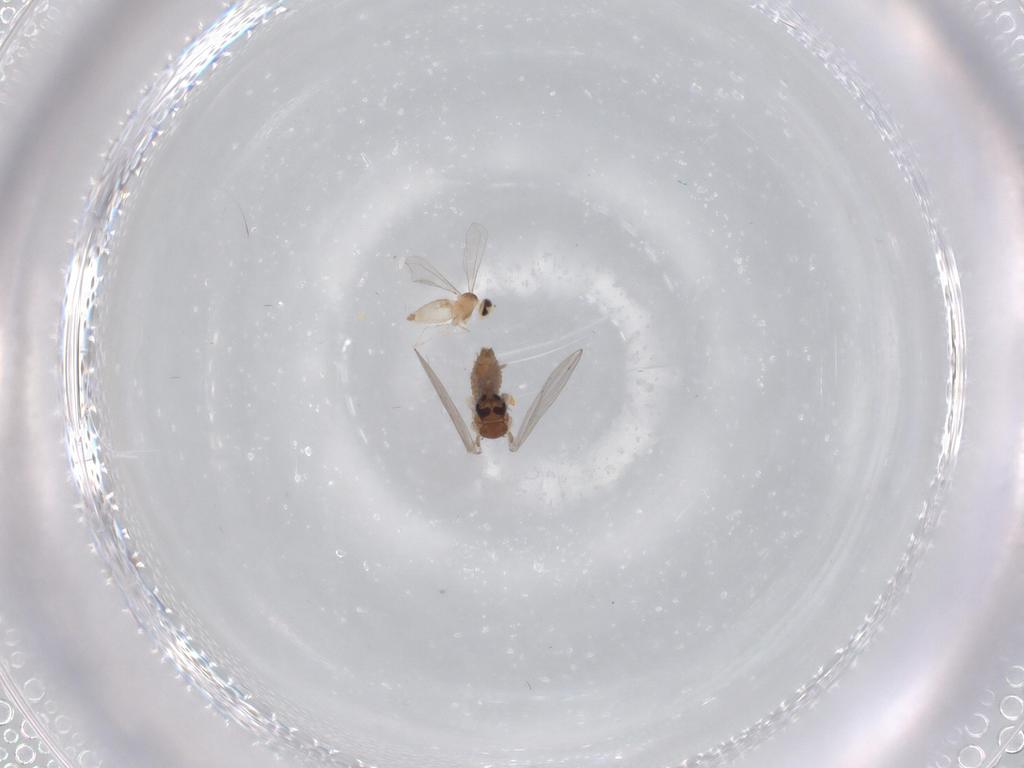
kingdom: Animalia
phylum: Arthropoda
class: Insecta
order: Diptera
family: Psychodidae
